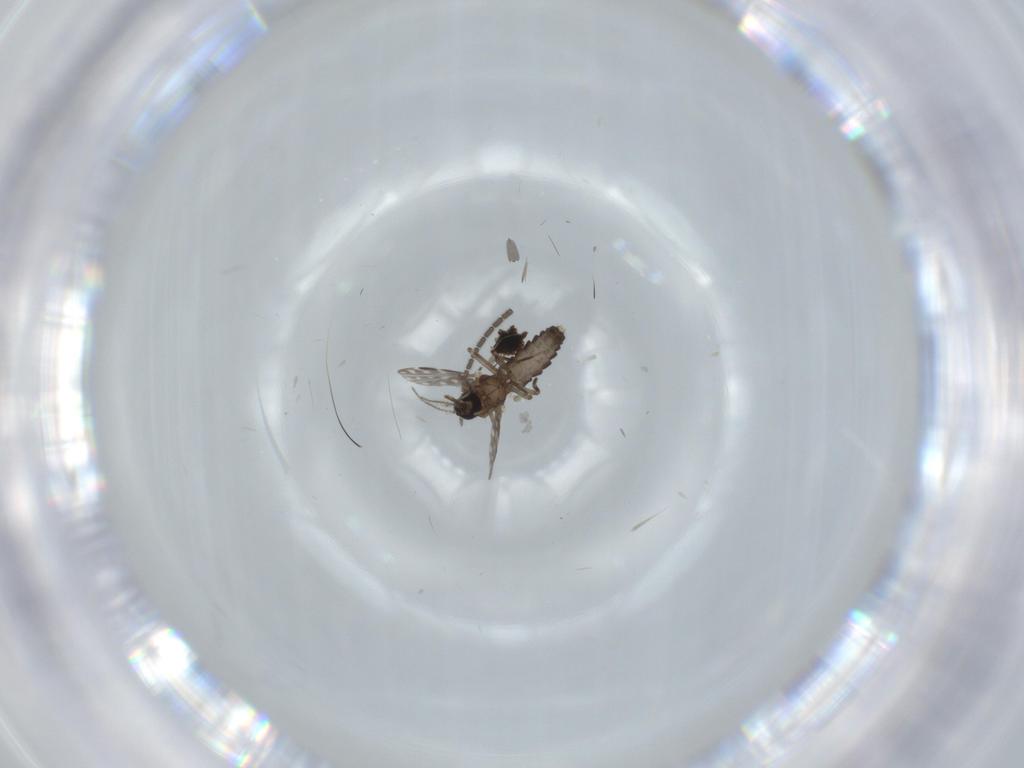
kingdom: Animalia
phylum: Arthropoda
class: Insecta
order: Diptera
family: Ceratopogonidae
